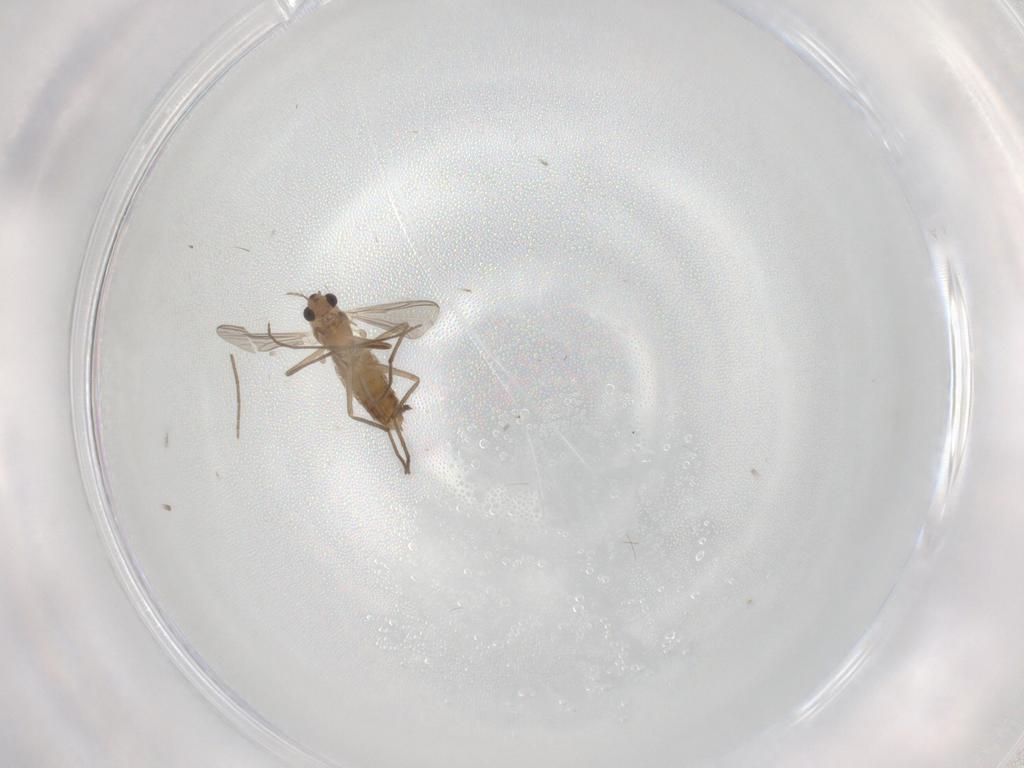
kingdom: Animalia
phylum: Arthropoda
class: Insecta
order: Diptera
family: Chironomidae
